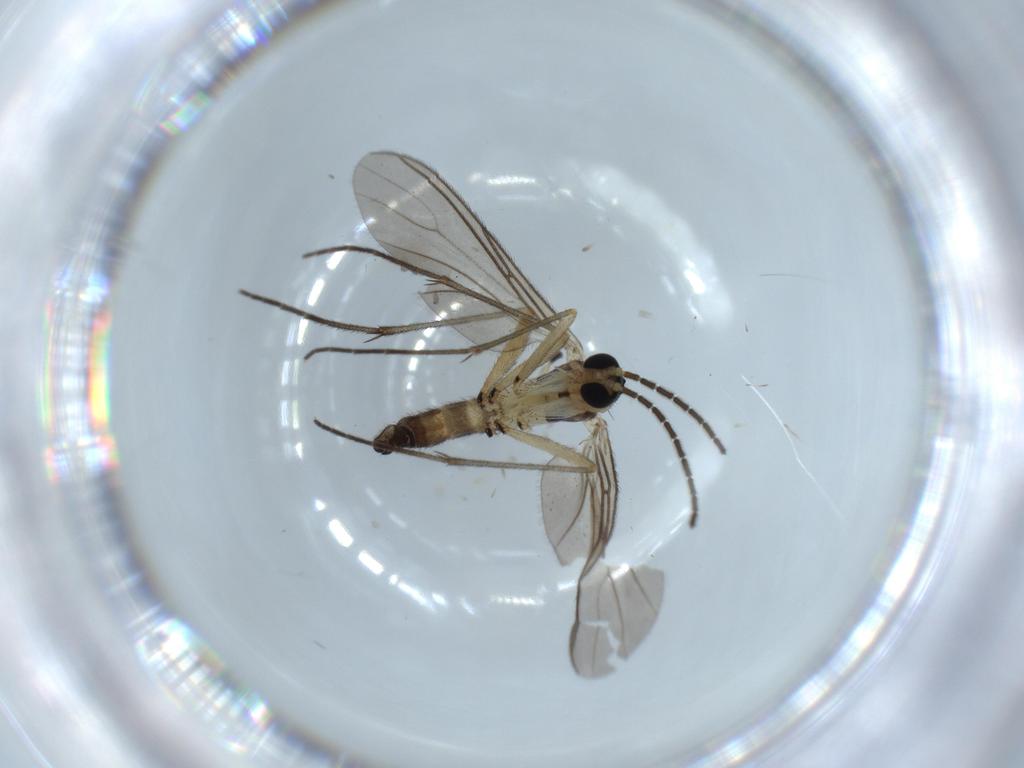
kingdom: Animalia
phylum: Arthropoda
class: Insecta
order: Diptera
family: Sciaridae
